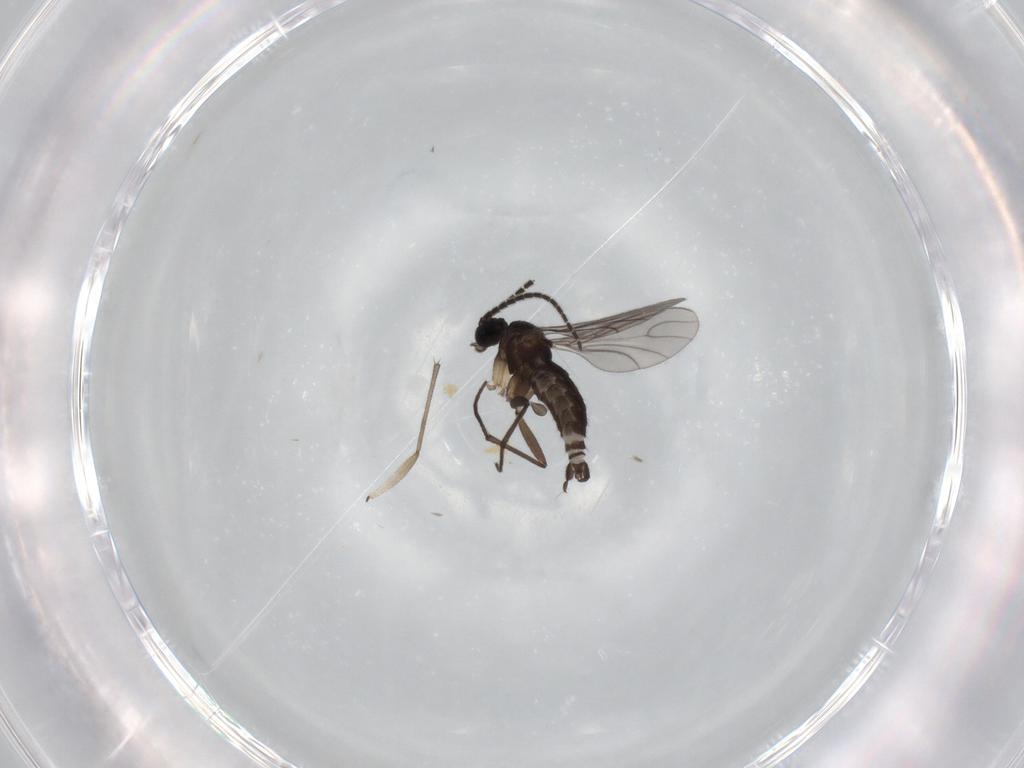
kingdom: Animalia
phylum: Arthropoda
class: Insecta
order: Diptera
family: Sciaridae
